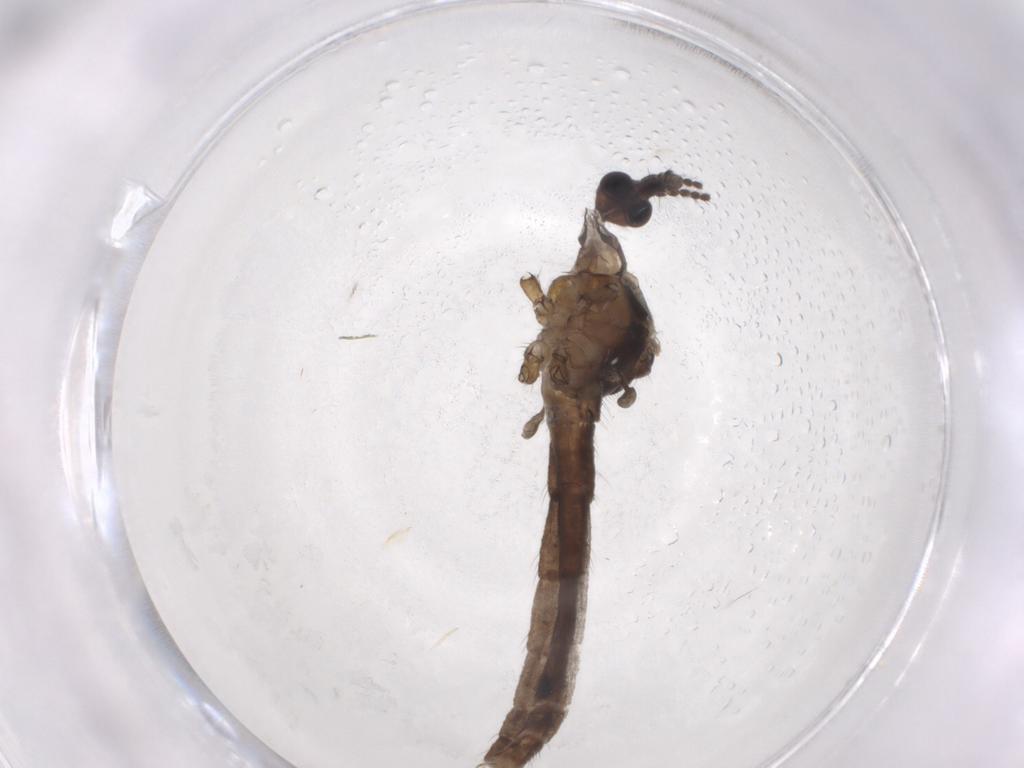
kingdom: Animalia
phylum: Arthropoda
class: Insecta
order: Diptera
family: Limoniidae
